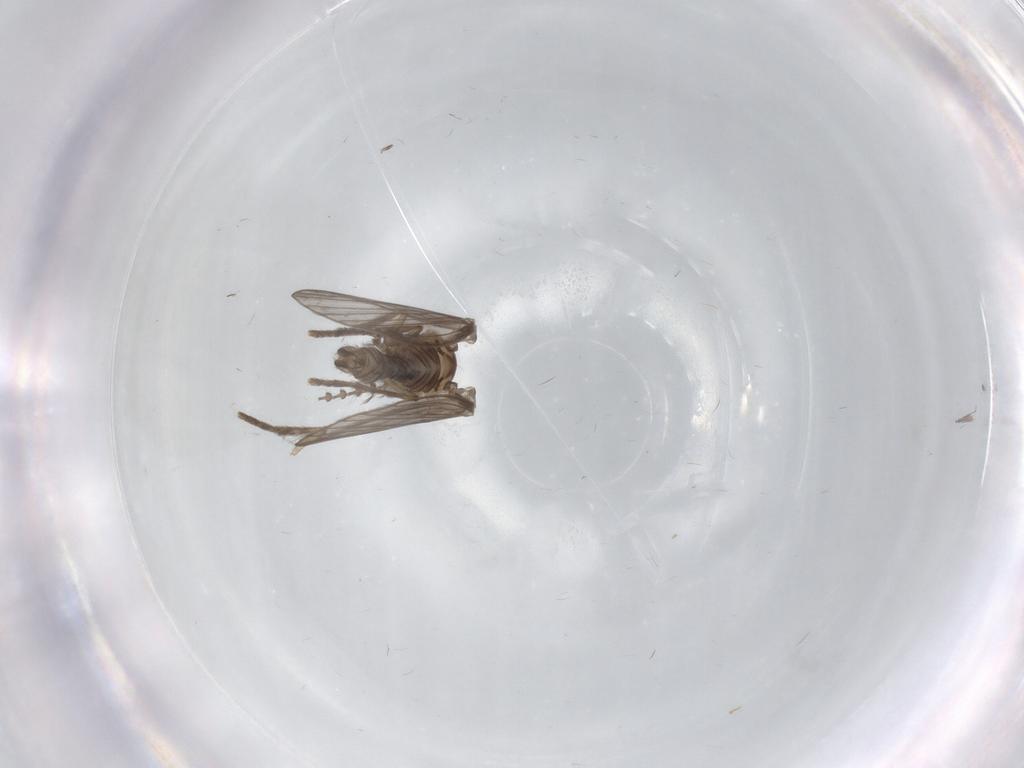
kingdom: Animalia
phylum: Arthropoda
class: Insecta
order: Diptera
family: Psychodidae
